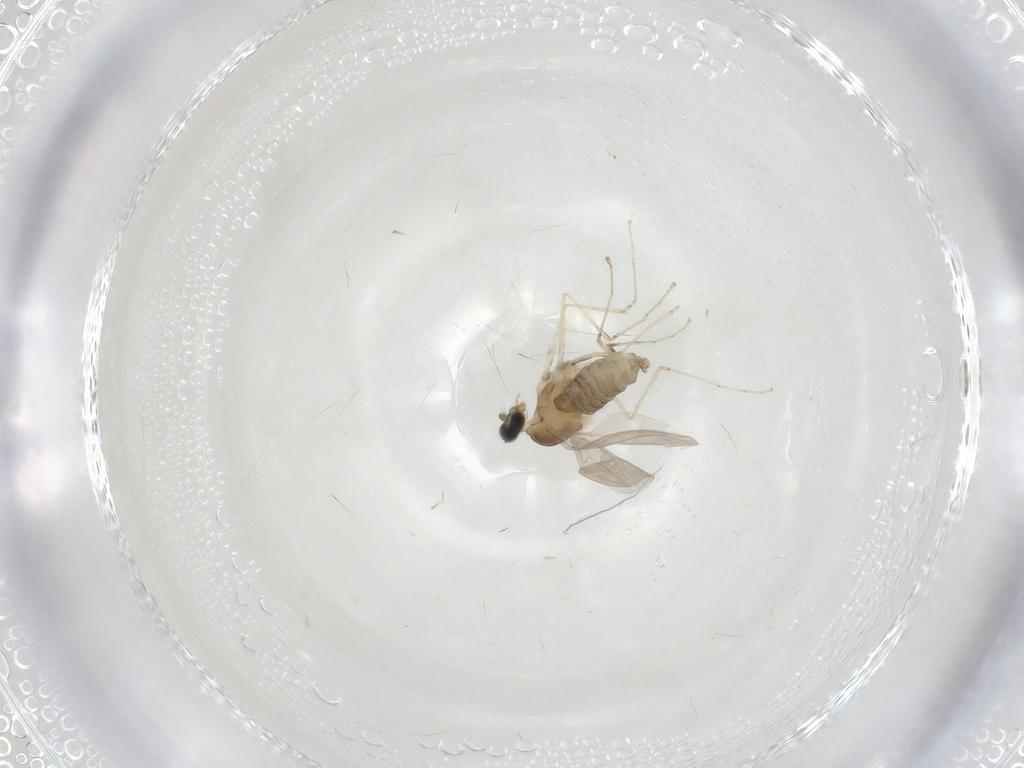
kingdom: Animalia
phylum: Arthropoda
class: Insecta
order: Diptera
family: Cecidomyiidae
